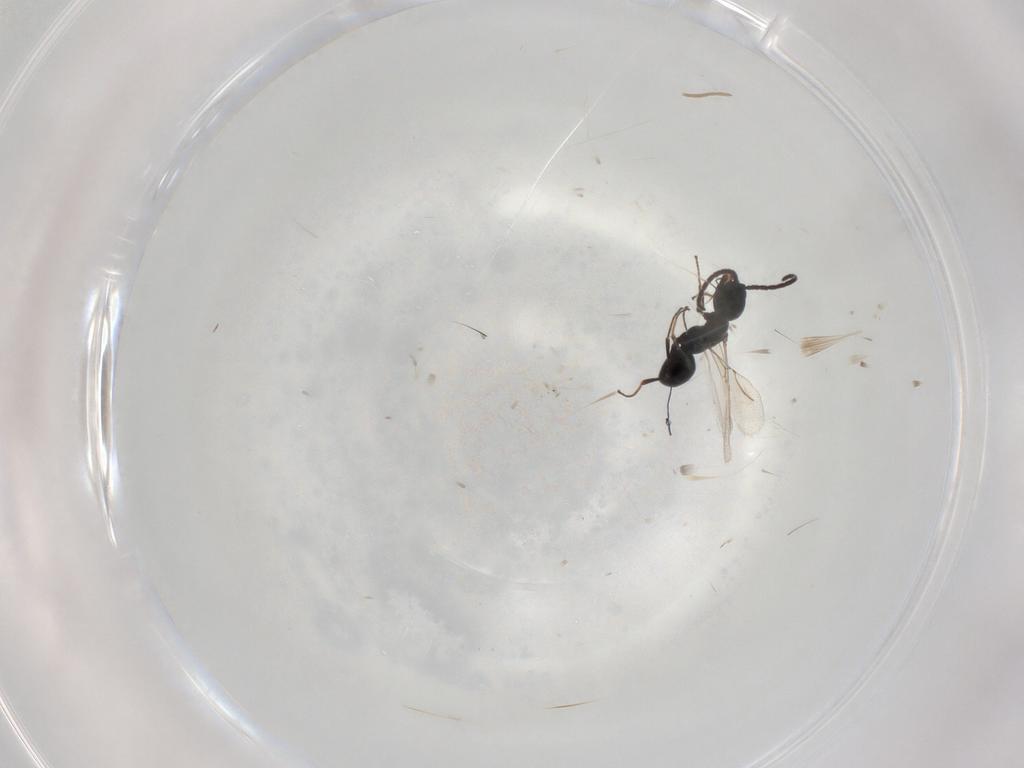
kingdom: Animalia
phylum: Arthropoda
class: Insecta
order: Hymenoptera
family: Bethylidae
